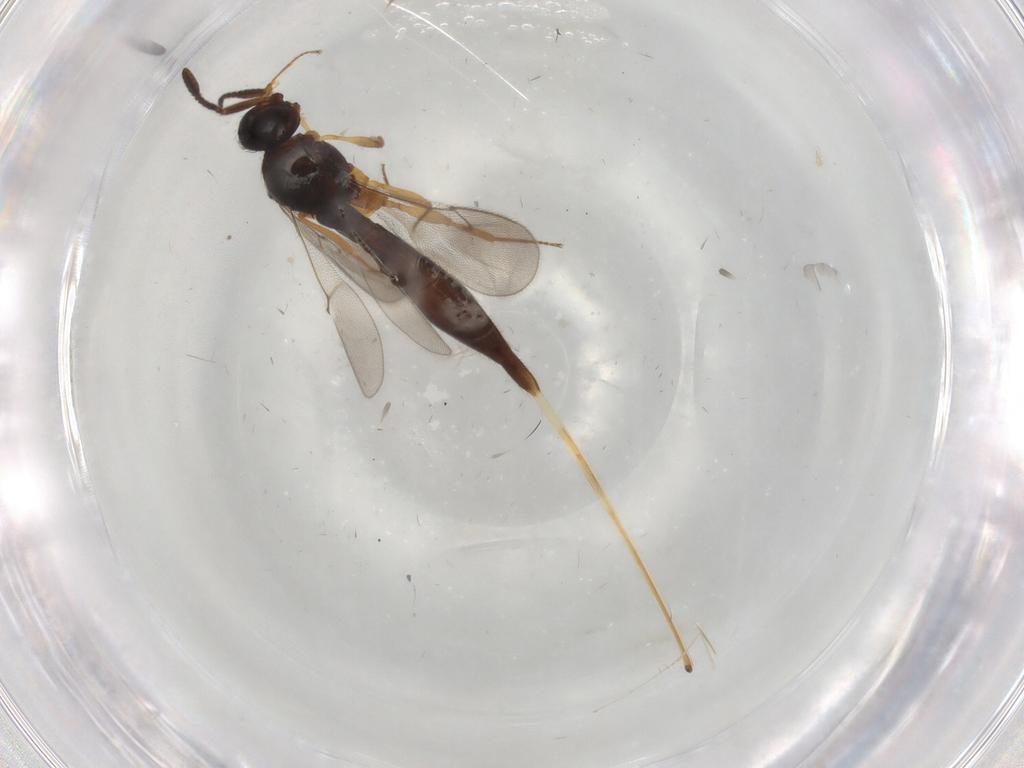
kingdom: Animalia
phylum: Arthropoda
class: Insecta
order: Hymenoptera
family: Scelionidae
